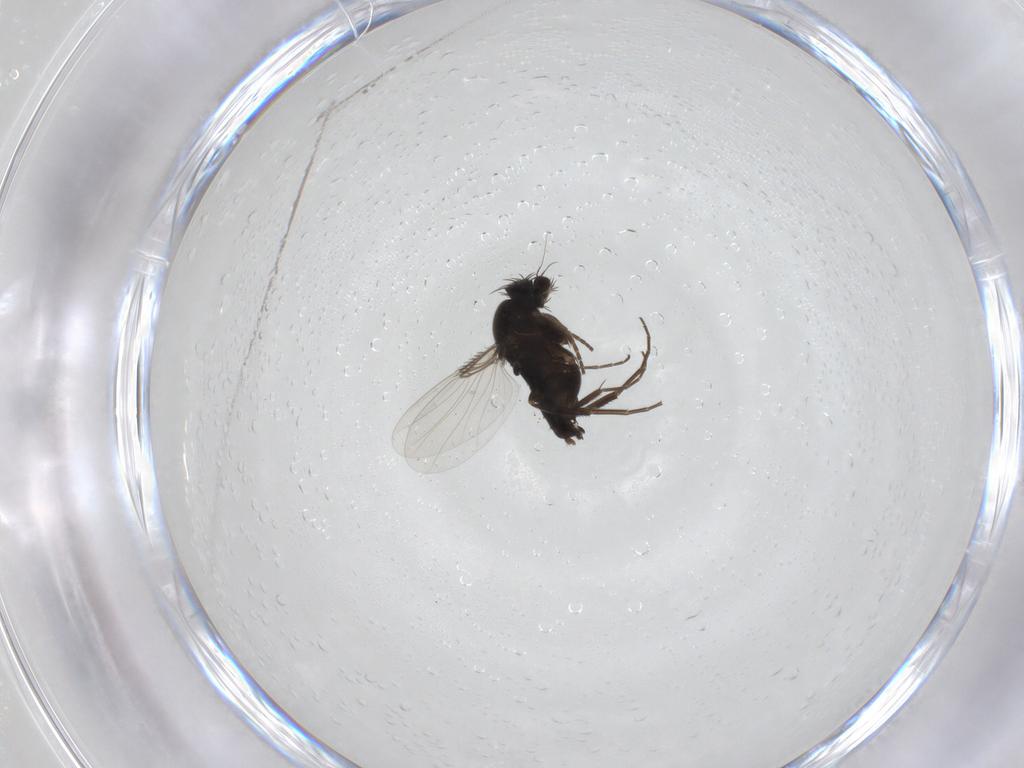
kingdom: Animalia
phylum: Arthropoda
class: Insecta
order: Diptera
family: Phoridae
